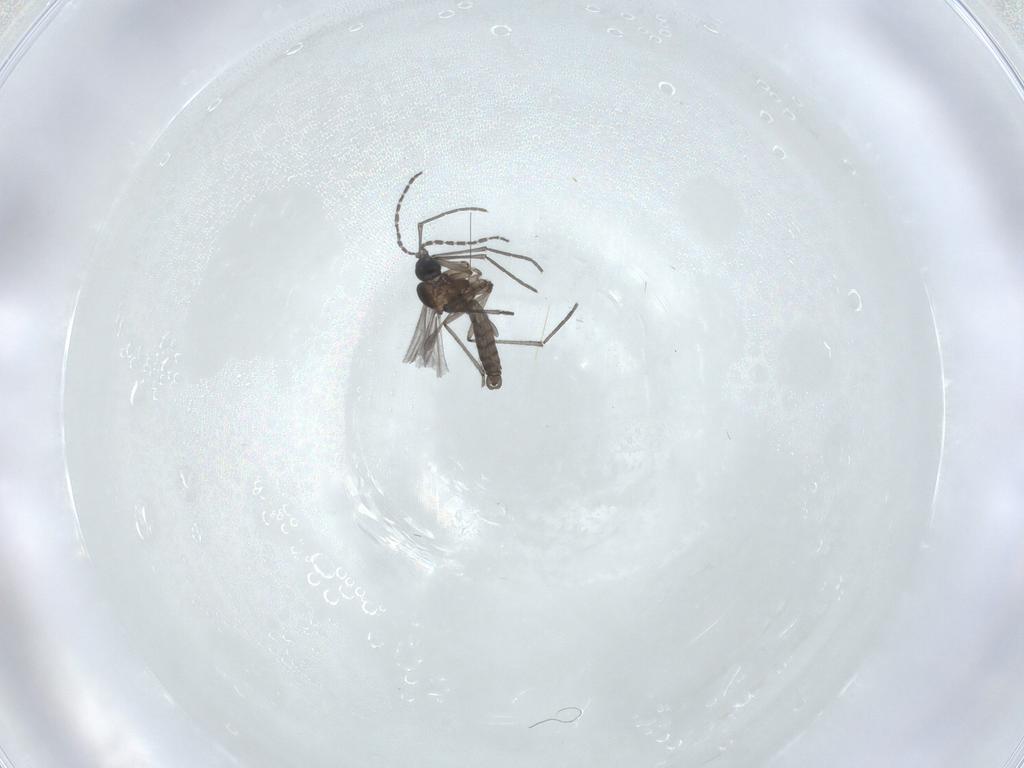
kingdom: Animalia
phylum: Arthropoda
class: Insecta
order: Diptera
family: Sciaridae
